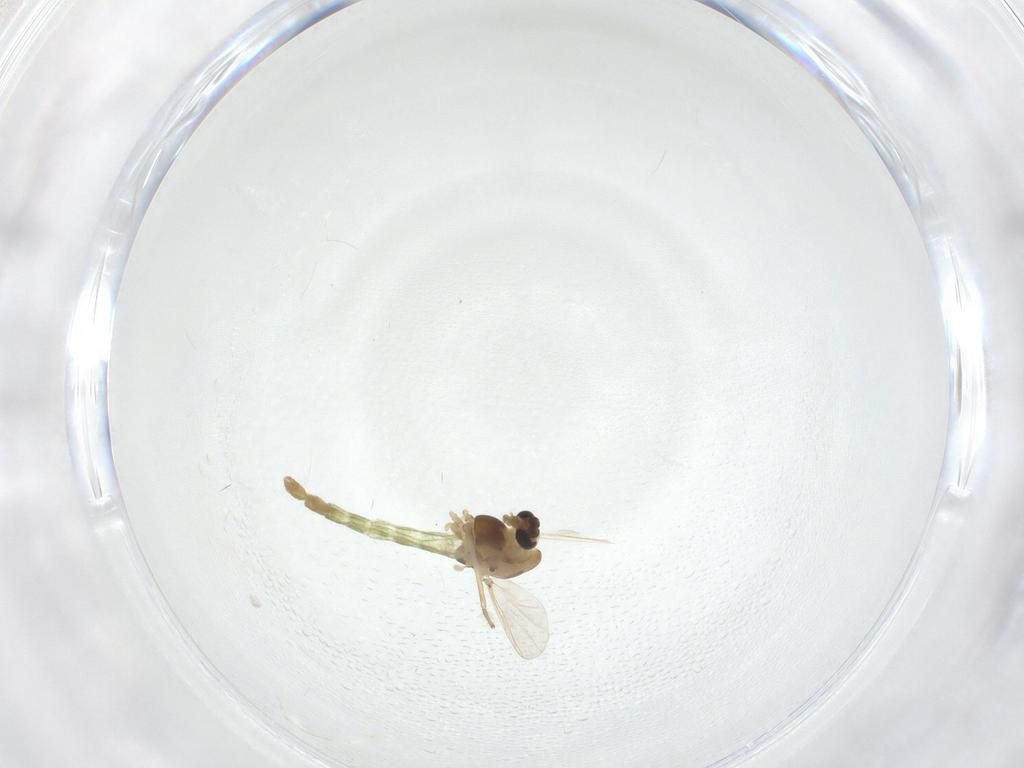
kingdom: Animalia
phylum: Arthropoda
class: Insecta
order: Diptera
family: Chironomidae
